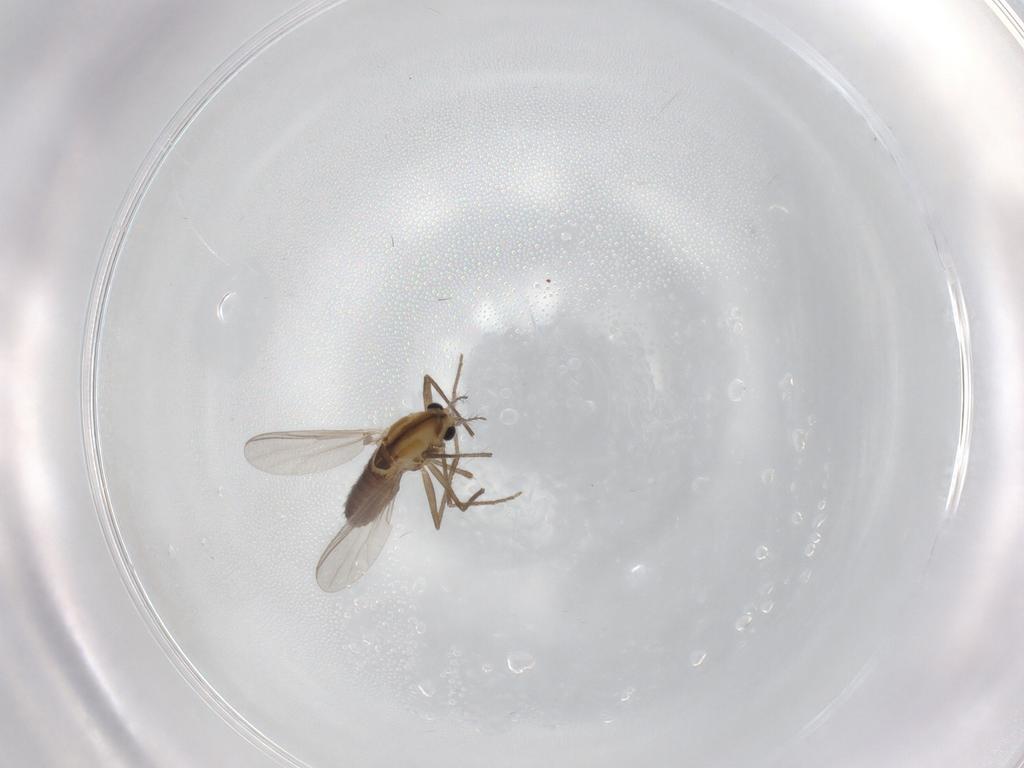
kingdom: Animalia
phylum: Arthropoda
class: Insecta
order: Diptera
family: Chironomidae
